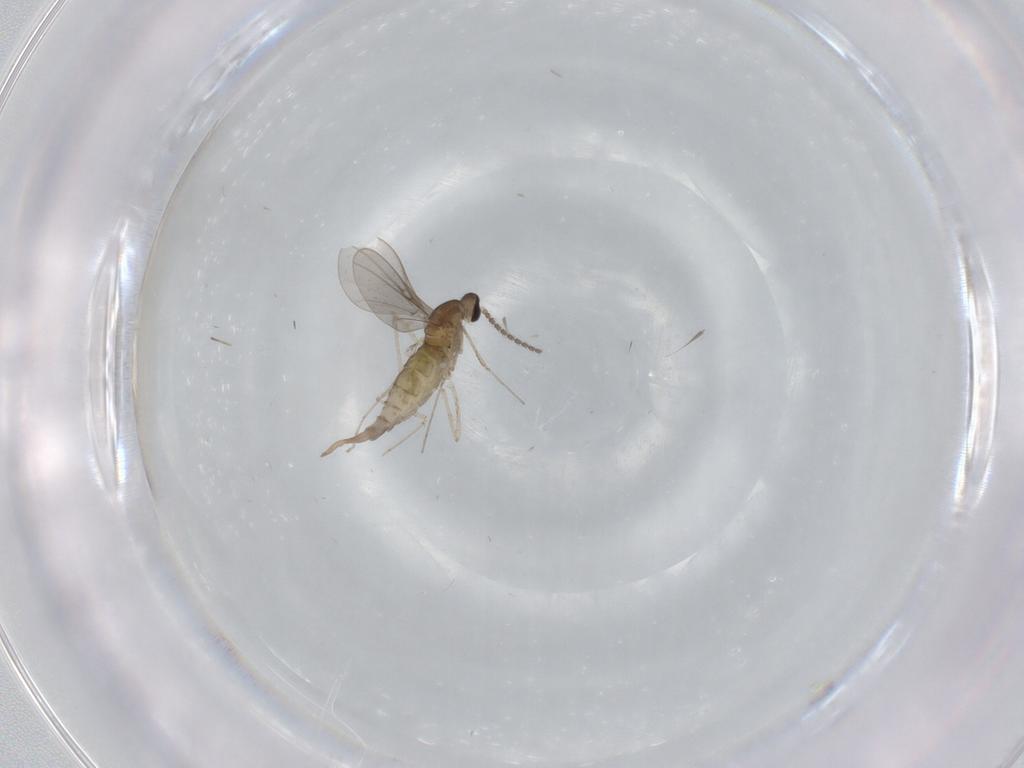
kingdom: Animalia
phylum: Arthropoda
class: Insecta
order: Diptera
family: Cecidomyiidae
